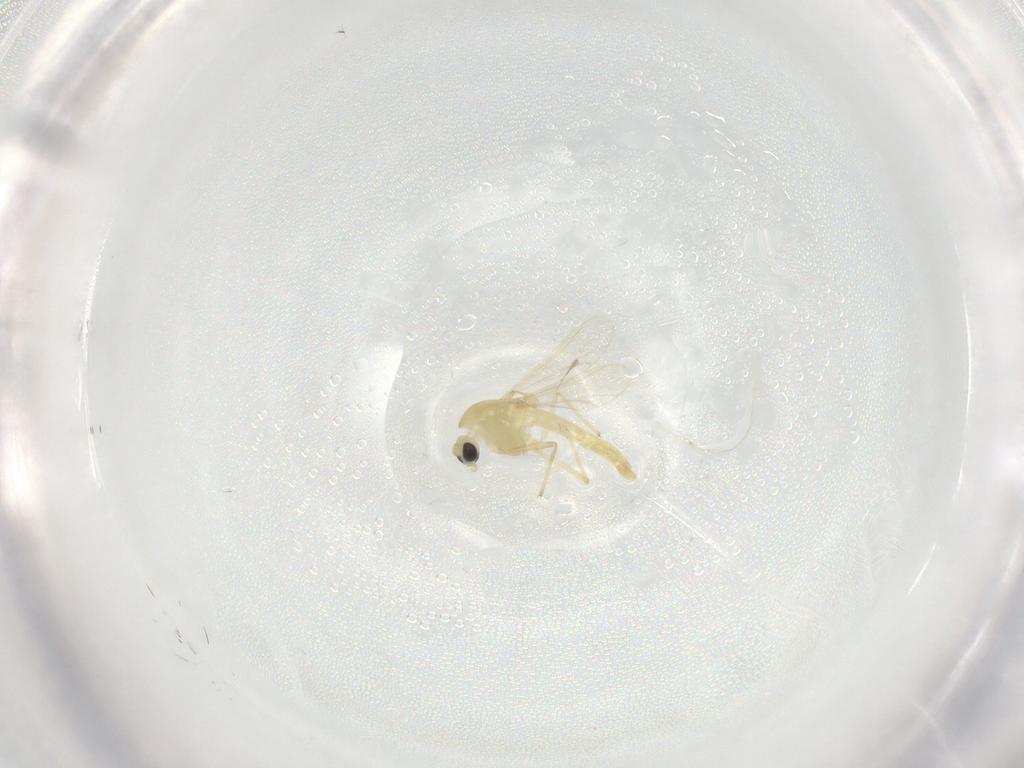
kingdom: Animalia
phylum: Arthropoda
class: Insecta
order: Diptera
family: Chironomidae
